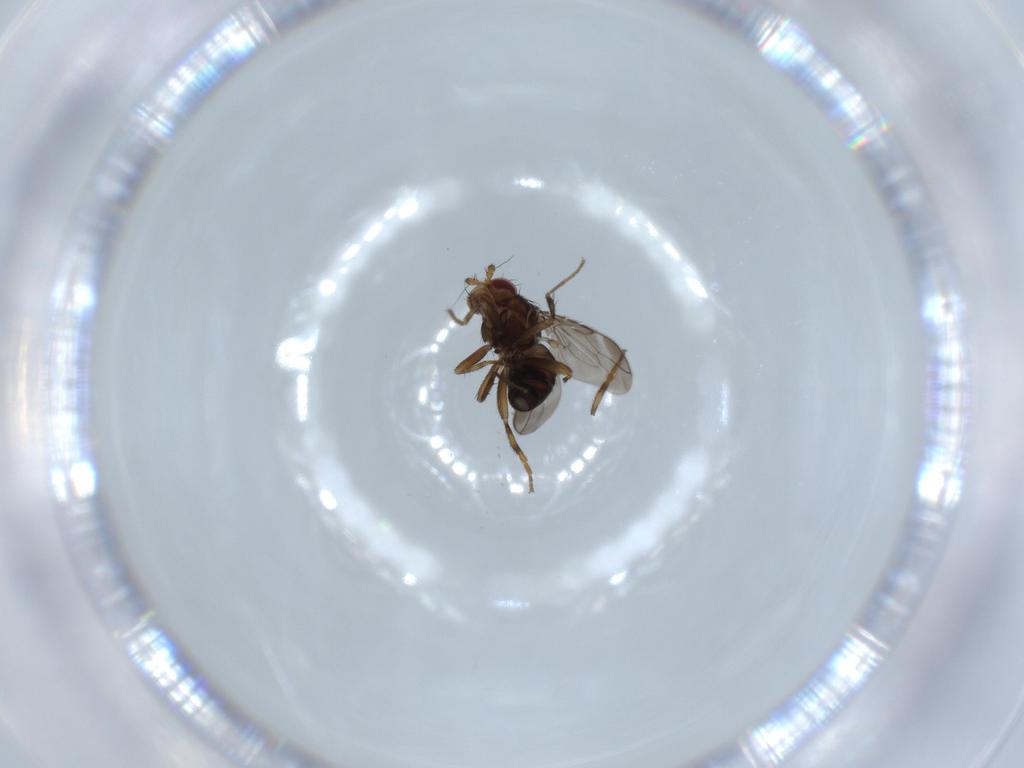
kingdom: Animalia
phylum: Arthropoda
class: Insecta
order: Diptera
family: Sphaeroceridae
